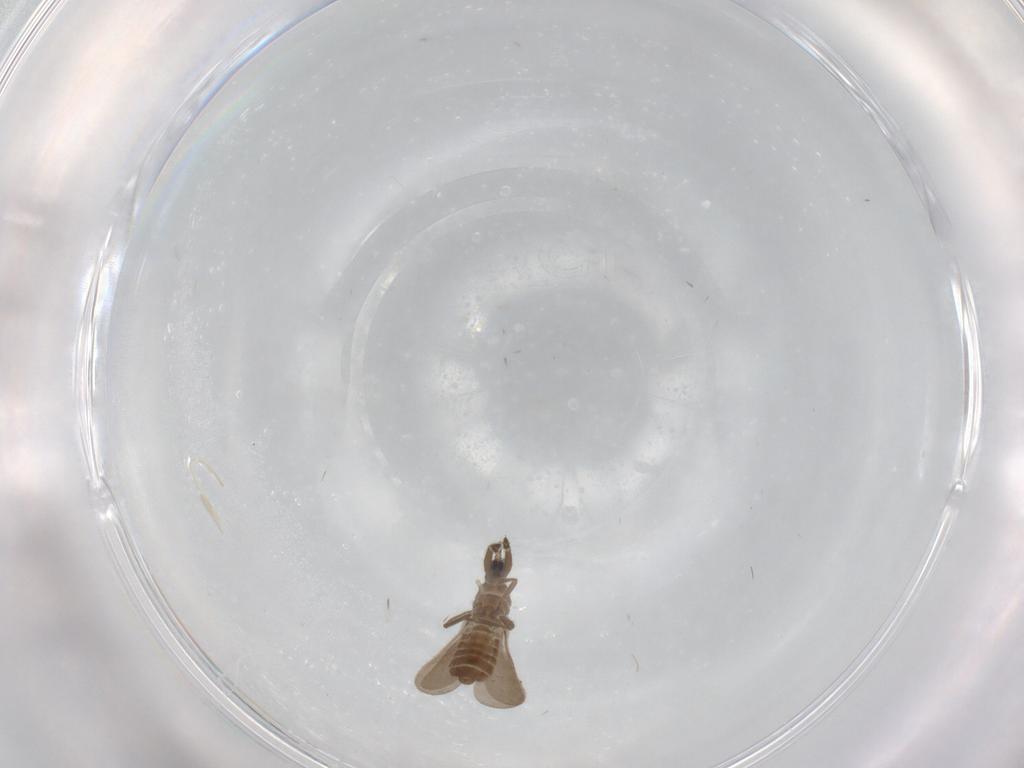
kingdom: Animalia
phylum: Arthropoda
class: Insecta
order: Hemiptera
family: Enicocephalidae
